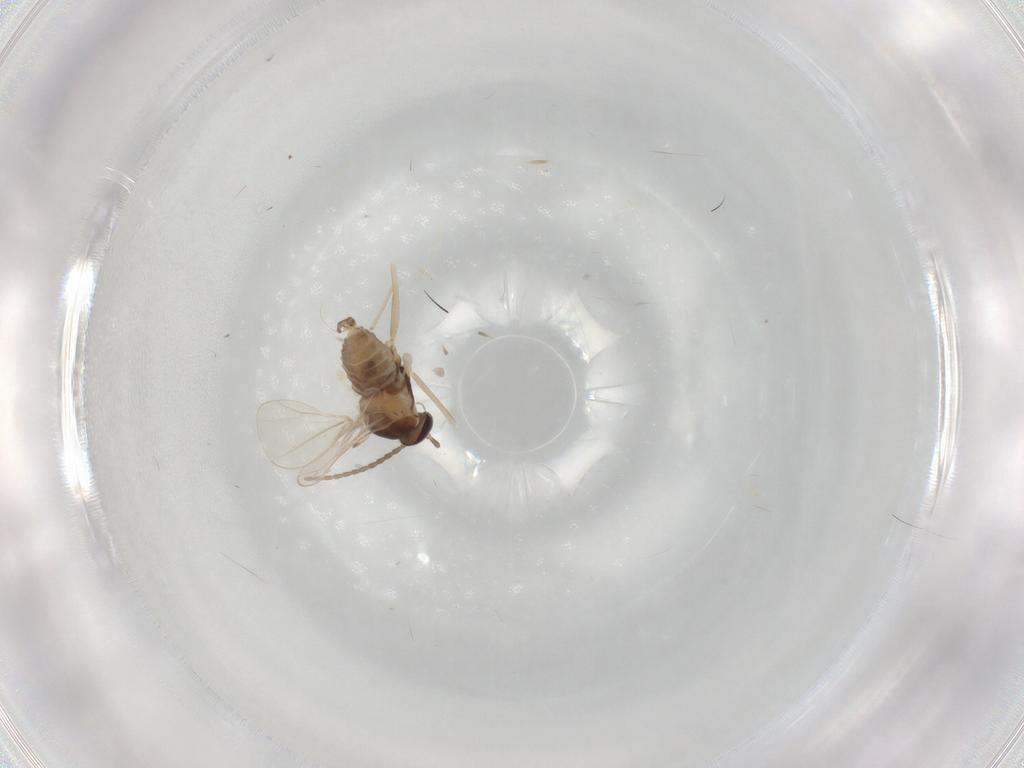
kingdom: Animalia
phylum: Arthropoda
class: Insecta
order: Diptera
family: Cecidomyiidae
